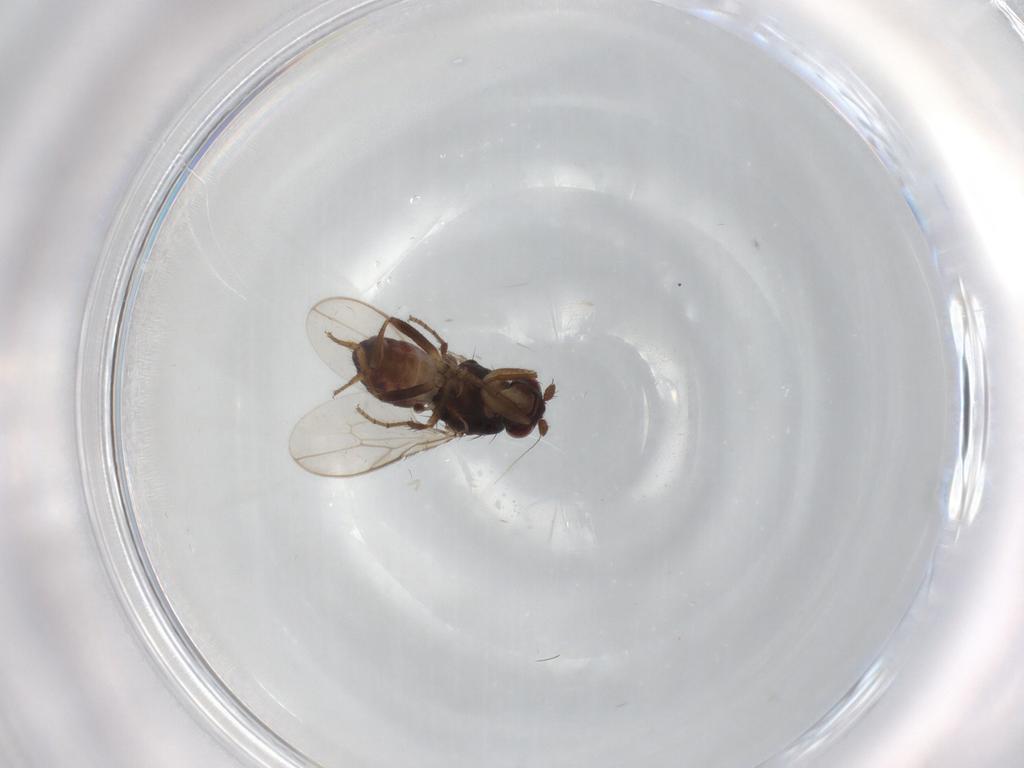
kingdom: Animalia
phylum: Arthropoda
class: Insecta
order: Diptera
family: Sphaeroceridae
